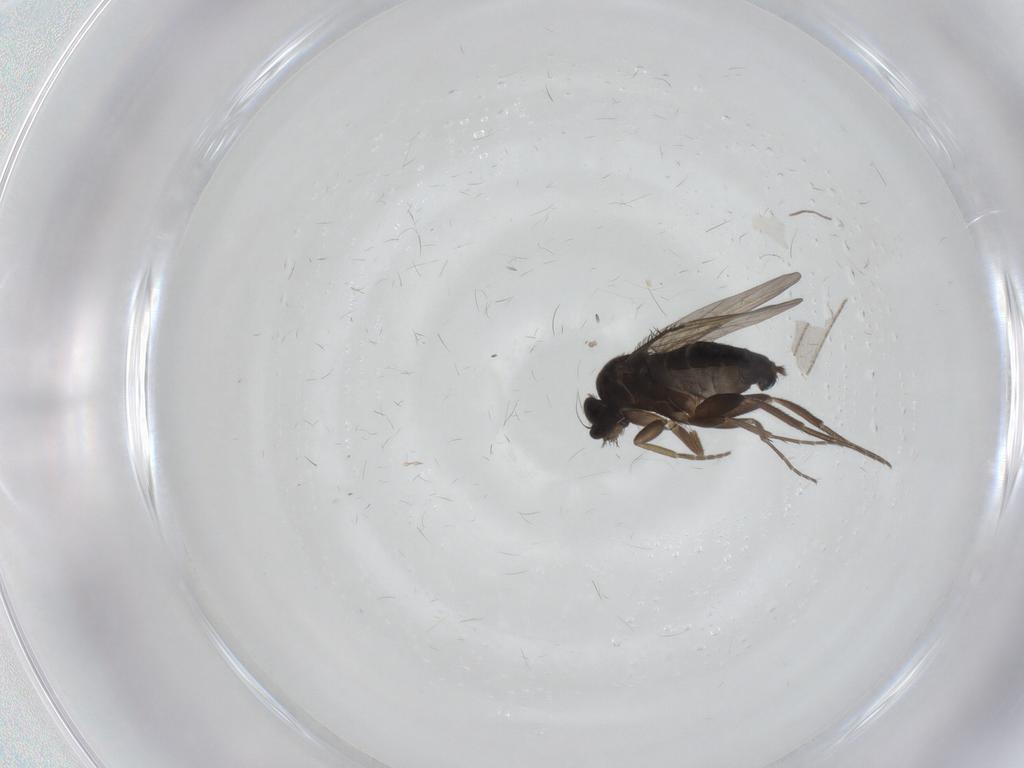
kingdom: Animalia
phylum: Arthropoda
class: Insecta
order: Diptera
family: Phoridae
